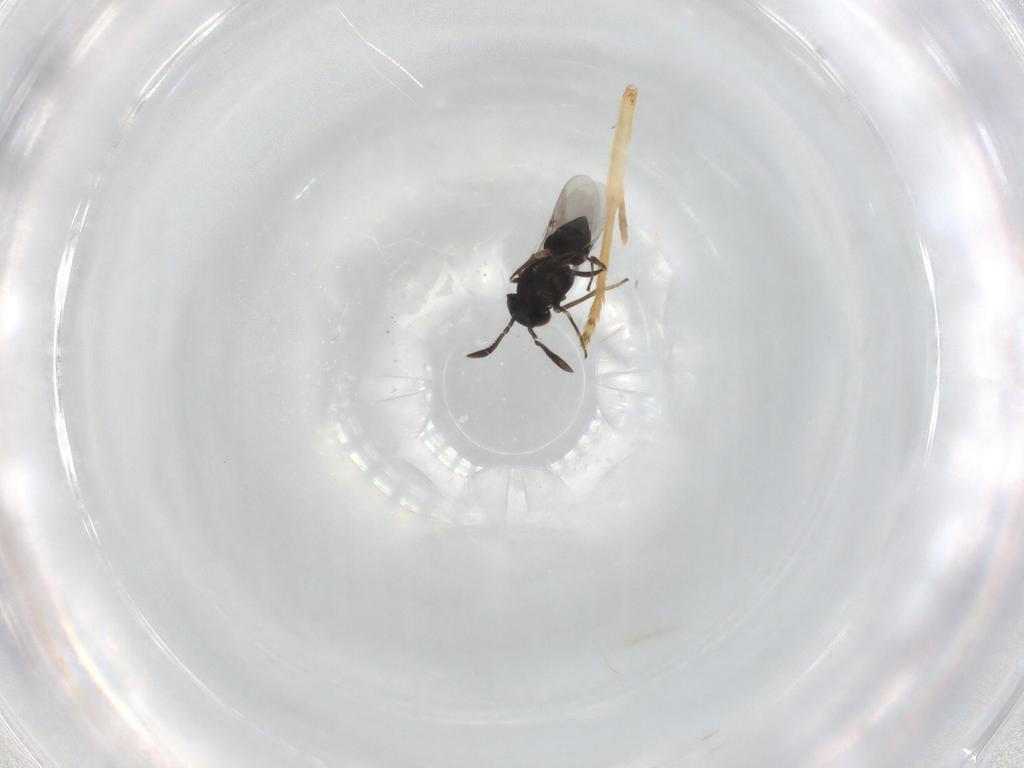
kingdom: Animalia
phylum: Arthropoda
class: Insecta
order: Hymenoptera
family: Encyrtidae
